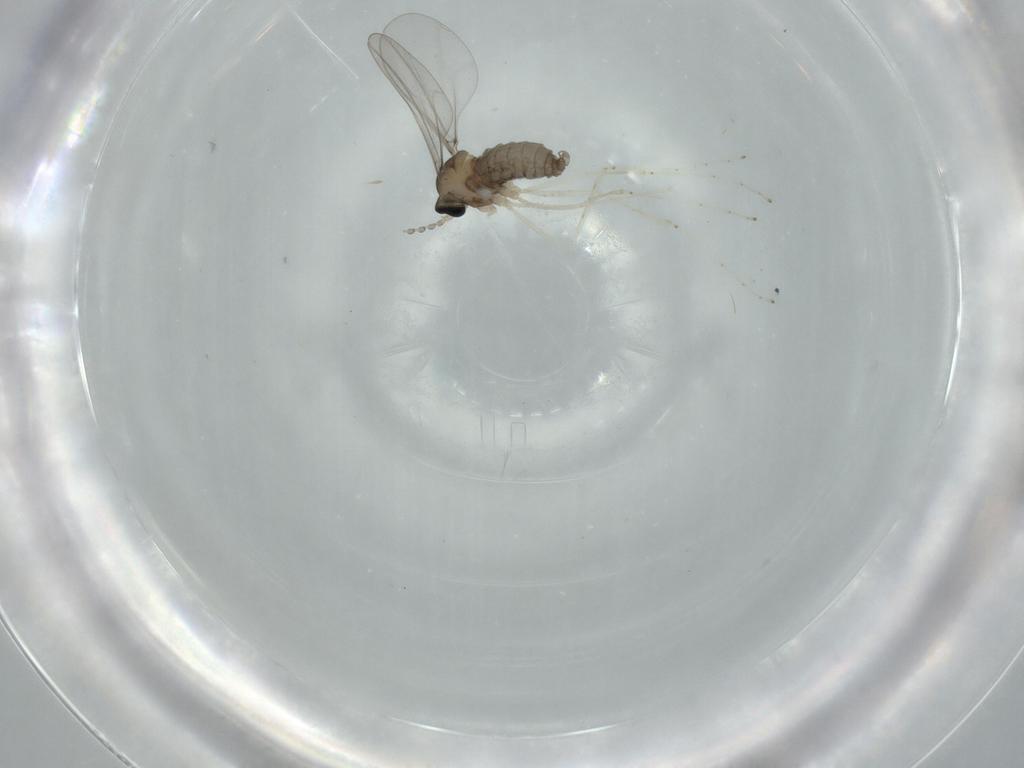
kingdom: Animalia
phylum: Arthropoda
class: Insecta
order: Diptera
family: Cecidomyiidae
